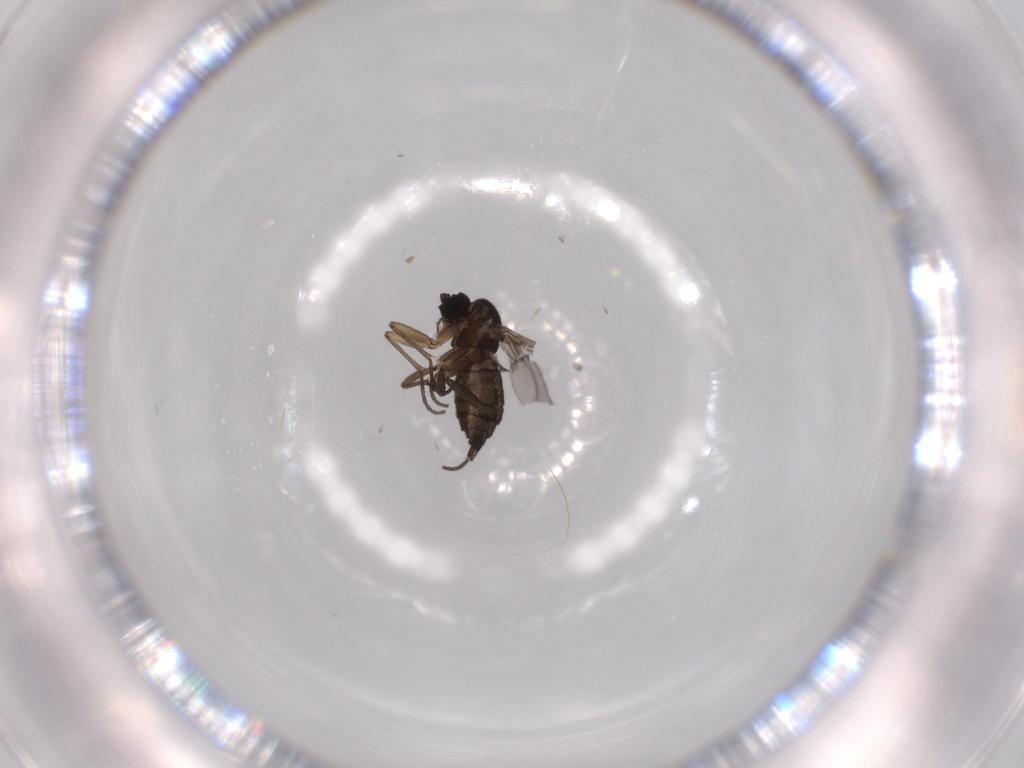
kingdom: Animalia
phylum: Arthropoda
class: Insecta
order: Diptera
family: Sciaridae
